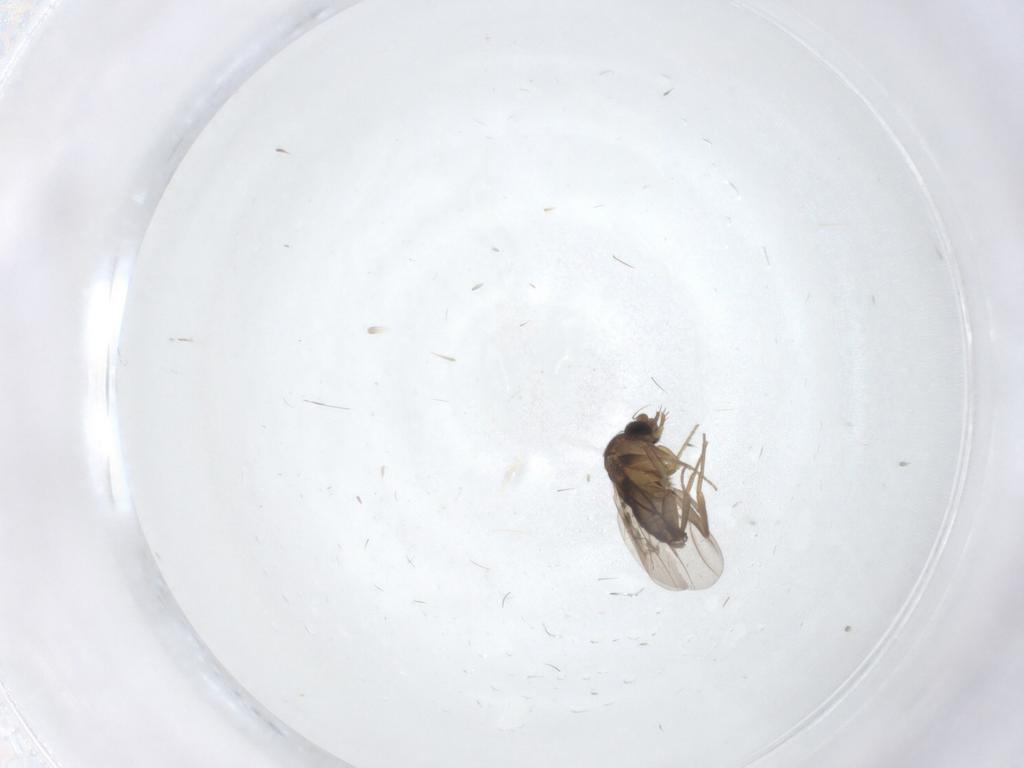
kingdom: Animalia
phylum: Arthropoda
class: Insecta
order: Diptera
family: Phoridae
